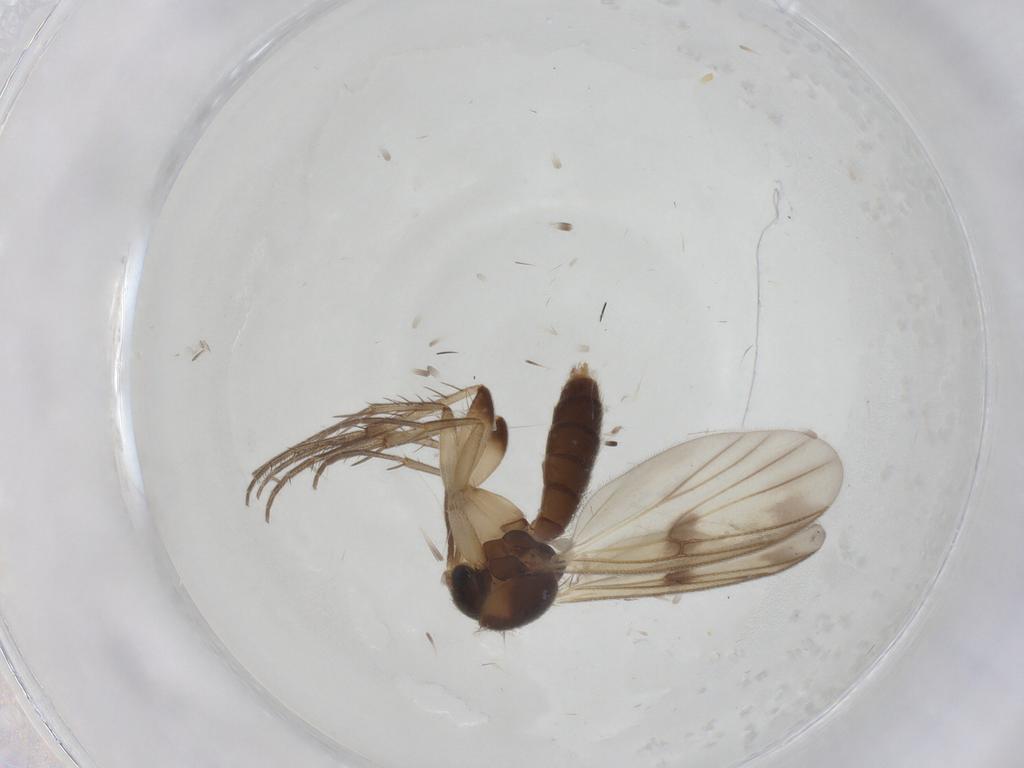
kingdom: Animalia
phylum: Arthropoda
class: Insecta
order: Diptera
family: Mycetophilidae
